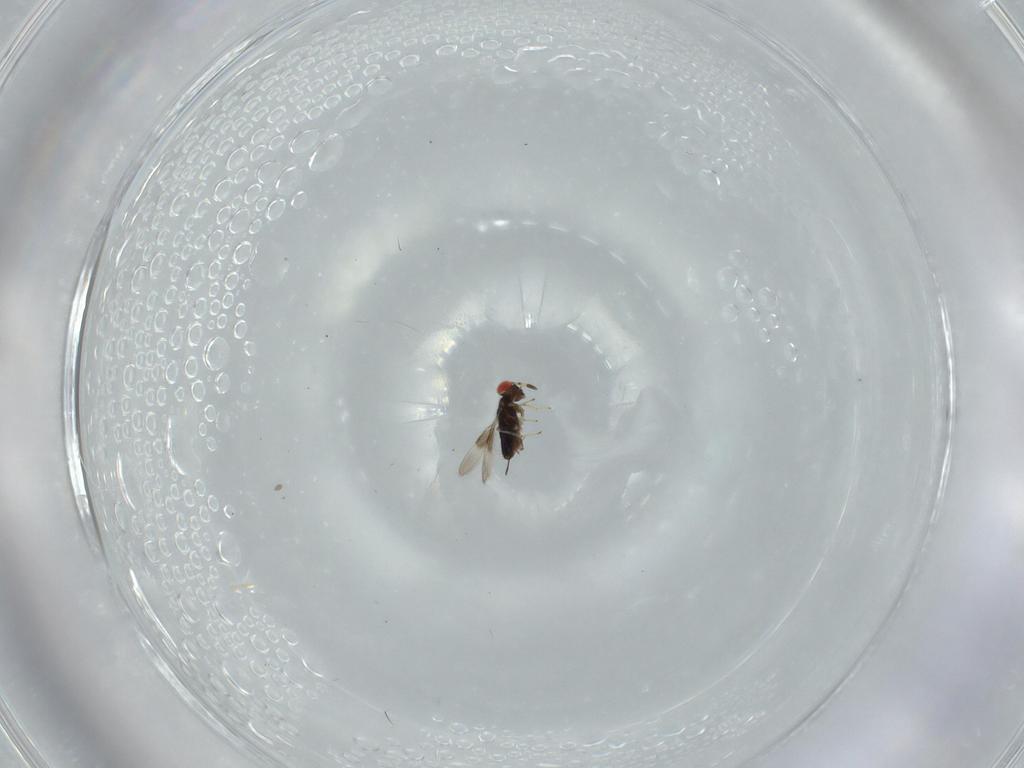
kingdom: Animalia
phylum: Arthropoda
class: Insecta
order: Hymenoptera
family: Azotidae
